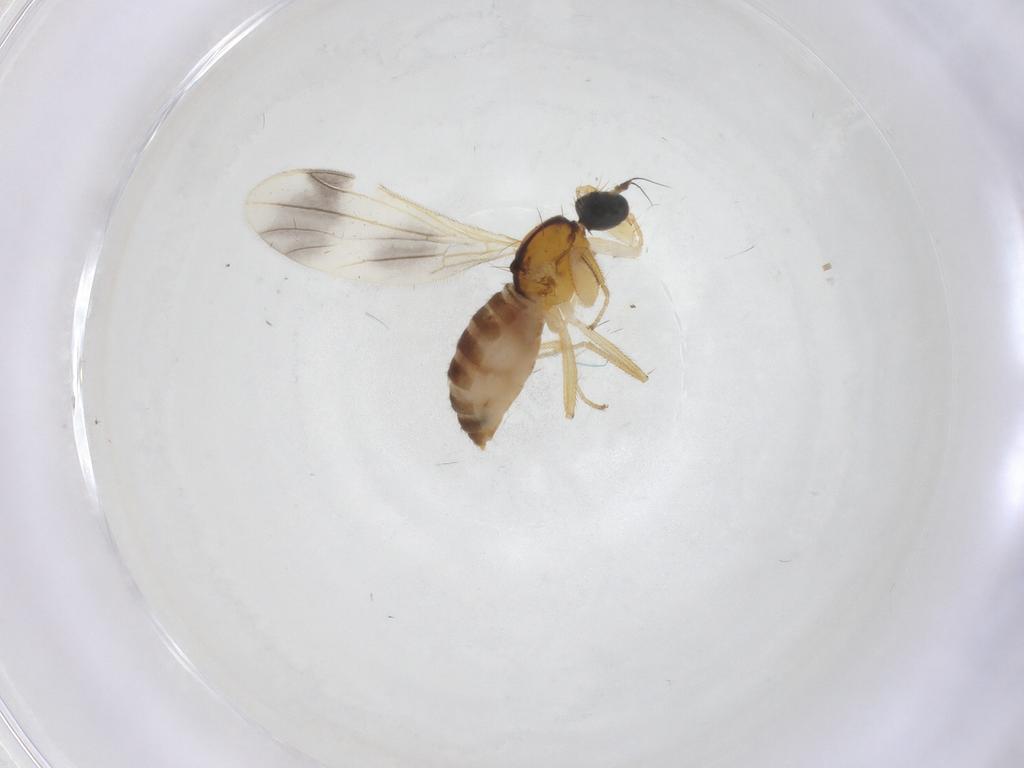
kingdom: Animalia
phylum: Arthropoda
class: Insecta
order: Diptera
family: Empididae
